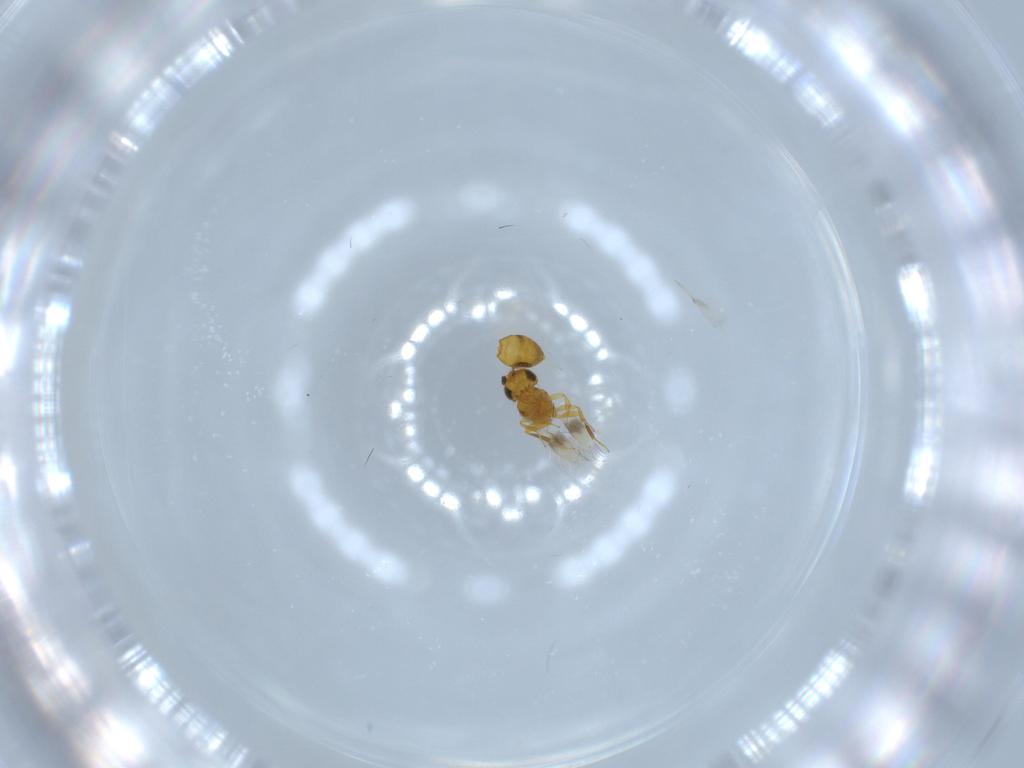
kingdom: Animalia
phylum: Arthropoda
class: Insecta
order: Hymenoptera
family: Scelionidae
